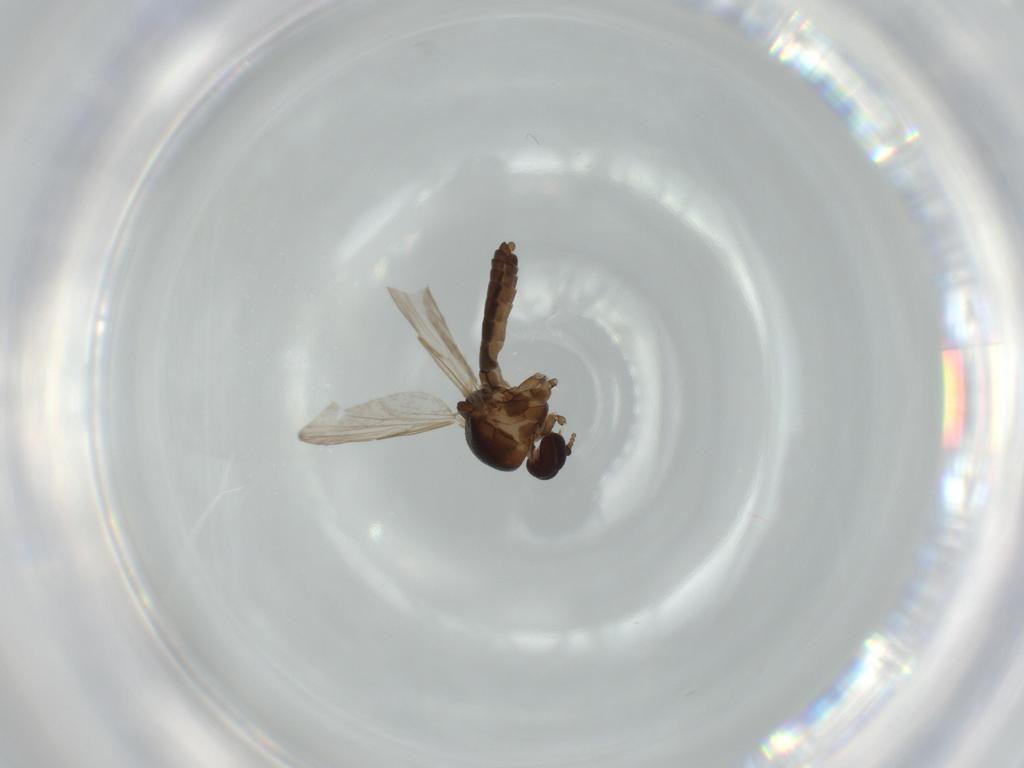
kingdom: Animalia
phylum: Arthropoda
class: Insecta
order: Diptera
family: Ceratopogonidae
